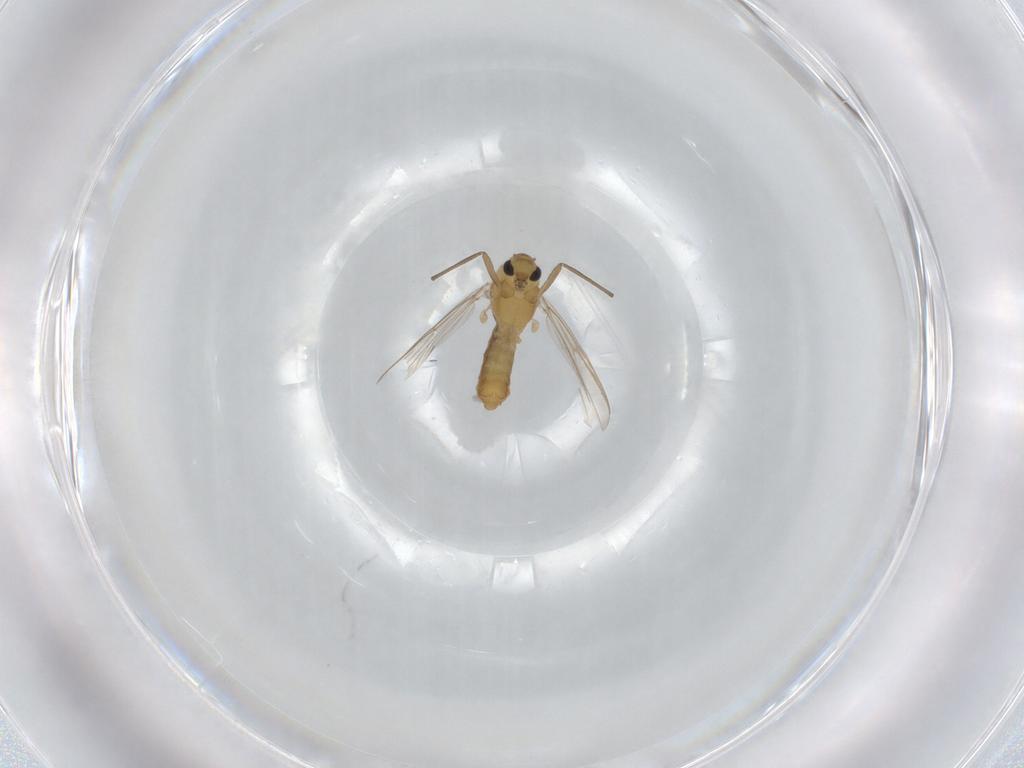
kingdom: Animalia
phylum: Arthropoda
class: Insecta
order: Diptera
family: Chironomidae
